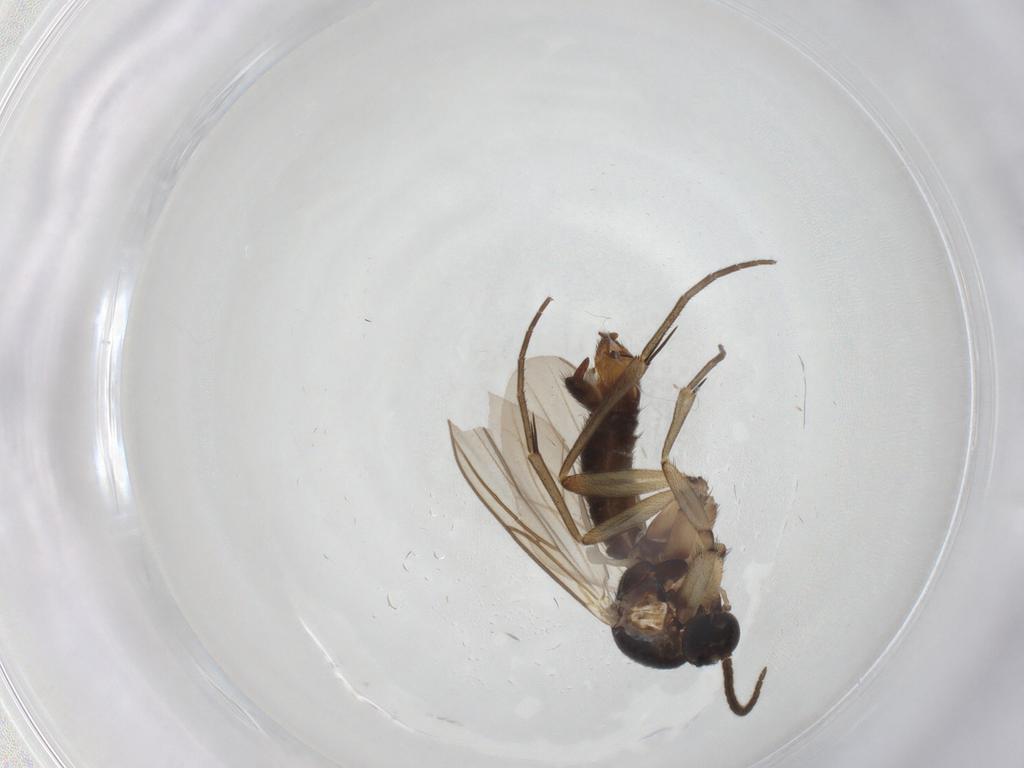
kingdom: Animalia
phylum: Arthropoda
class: Insecta
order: Diptera
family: Mycetophilidae
